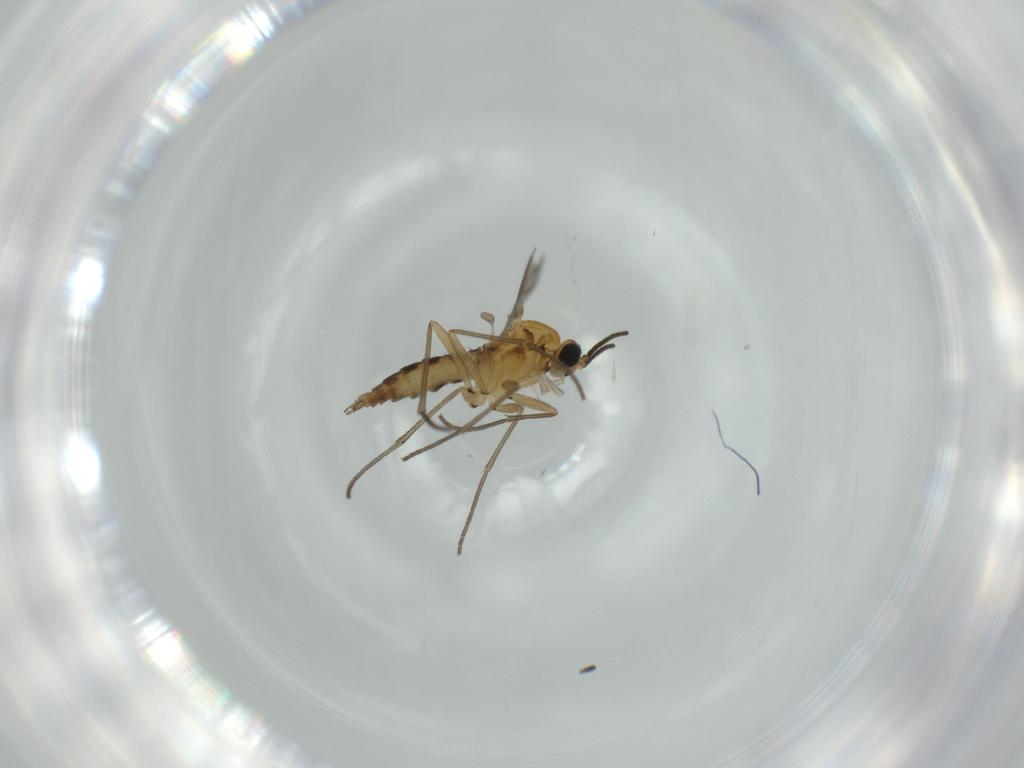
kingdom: Animalia
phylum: Arthropoda
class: Insecta
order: Diptera
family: Milichiidae
